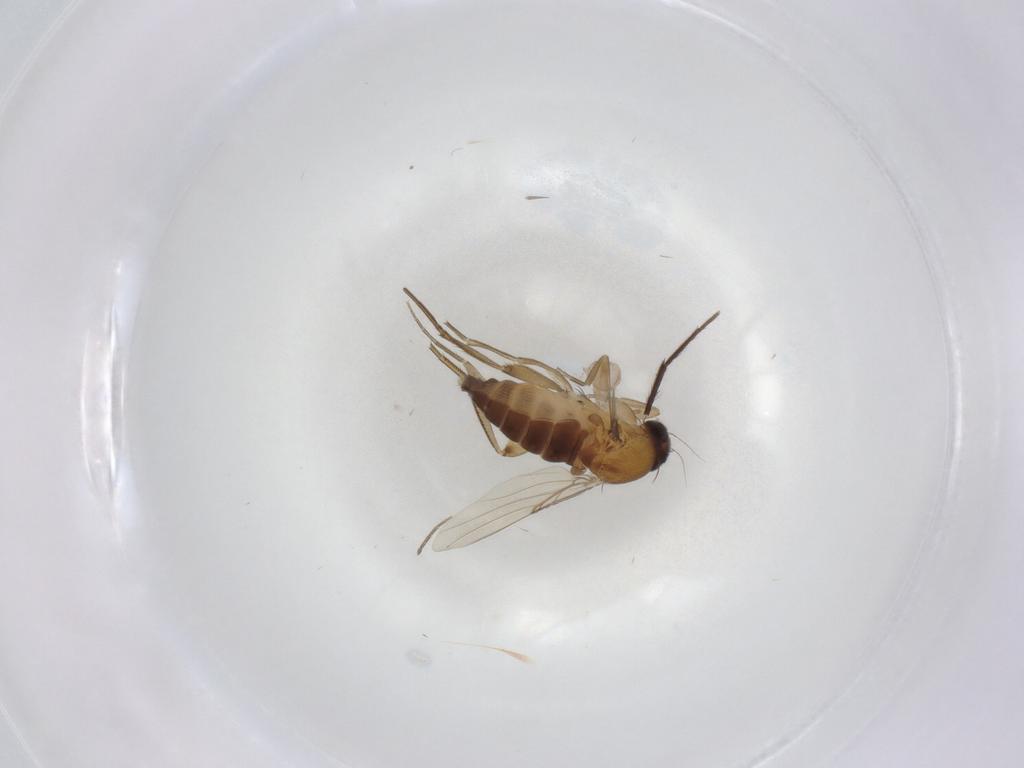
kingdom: Animalia
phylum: Arthropoda
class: Insecta
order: Diptera
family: Phoridae
